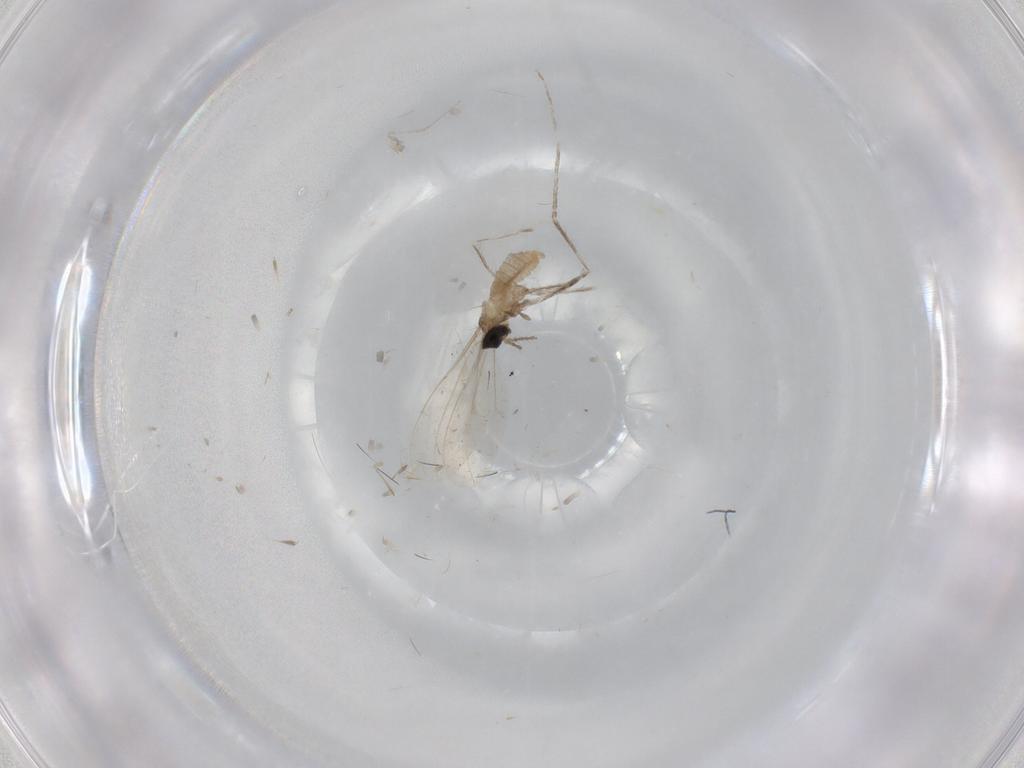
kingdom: Animalia
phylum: Arthropoda
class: Insecta
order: Diptera
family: Cecidomyiidae
